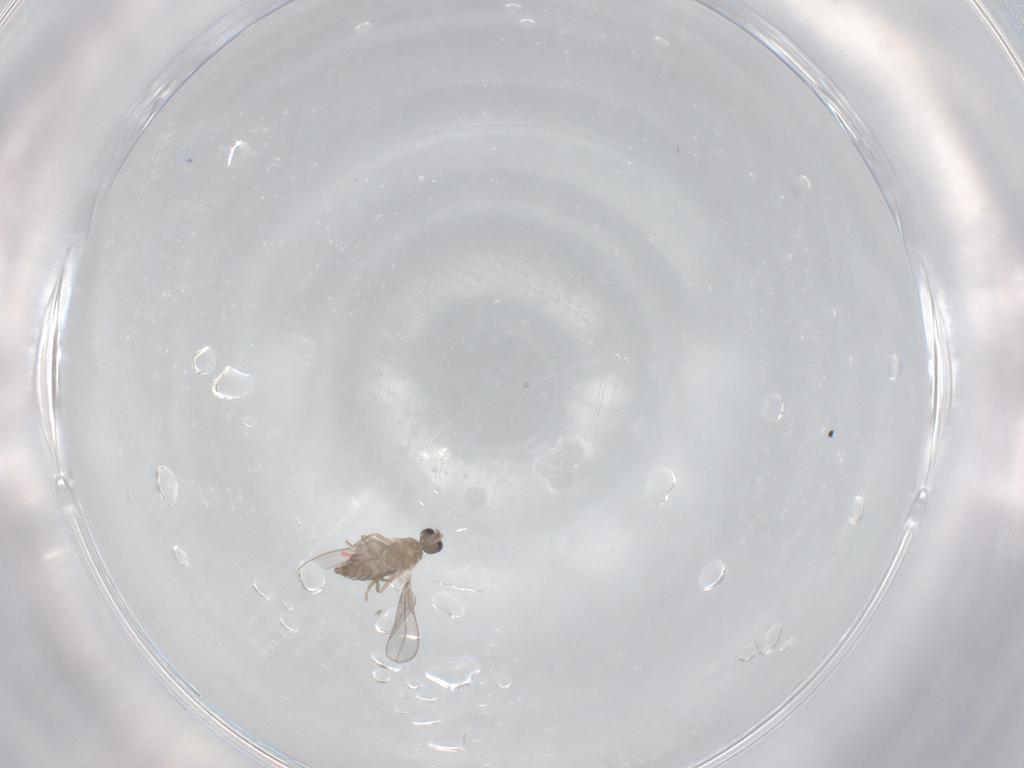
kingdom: Animalia
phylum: Arthropoda
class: Insecta
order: Diptera
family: Cecidomyiidae
